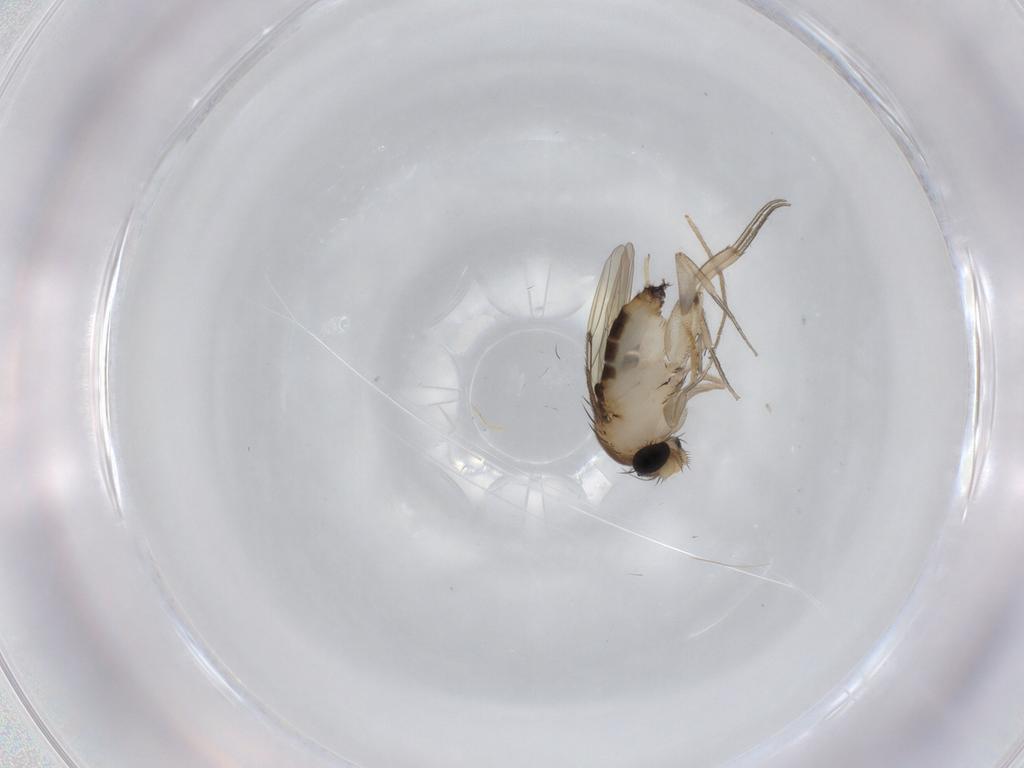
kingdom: Animalia
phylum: Arthropoda
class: Insecta
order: Diptera
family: Phoridae
